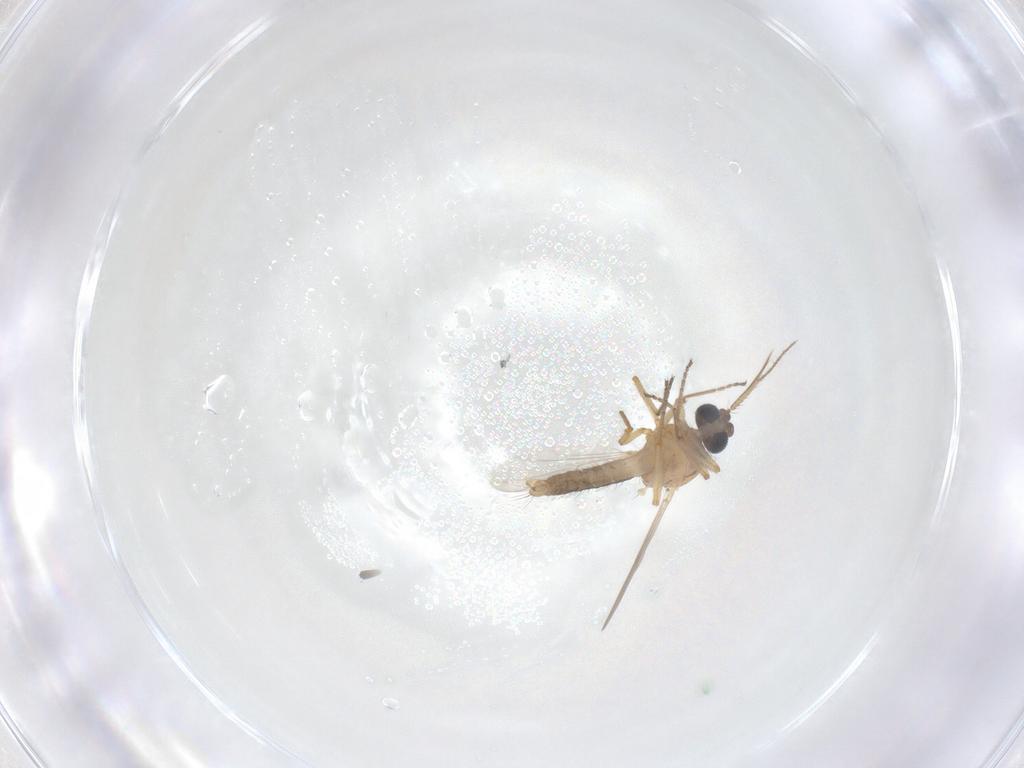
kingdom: Animalia
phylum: Arthropoda
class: Insecta
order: Diptera
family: Ceratopogonidae
